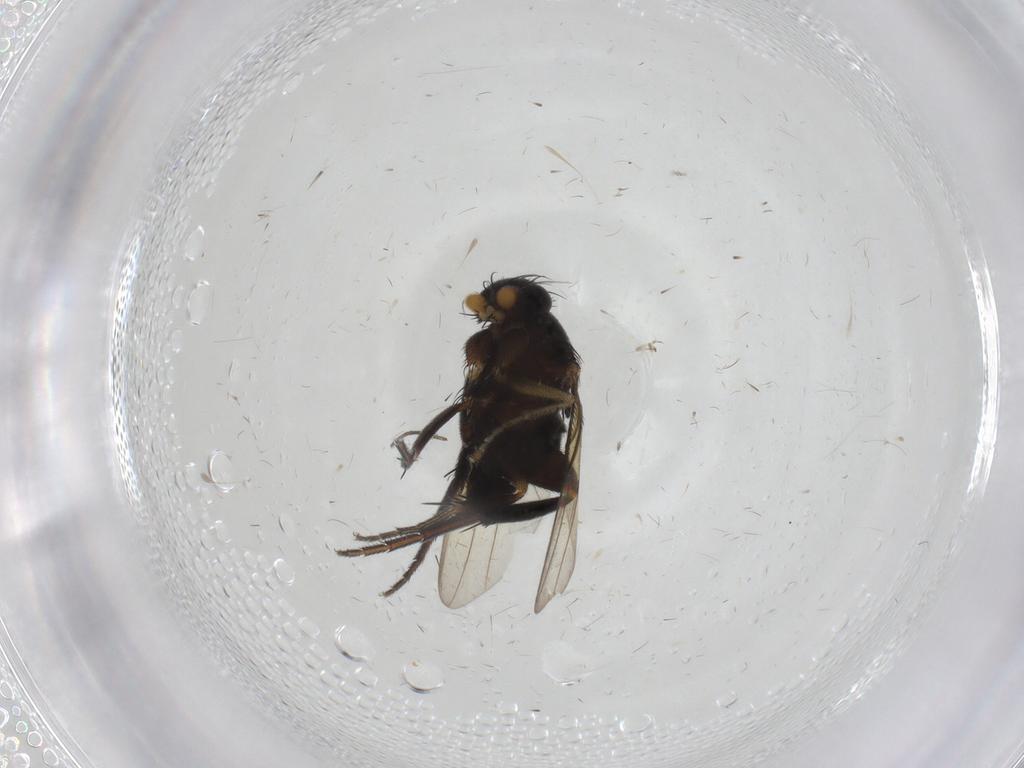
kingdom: Animalia
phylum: Arthropoda
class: Insecta
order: Diptera
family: Phoridae
